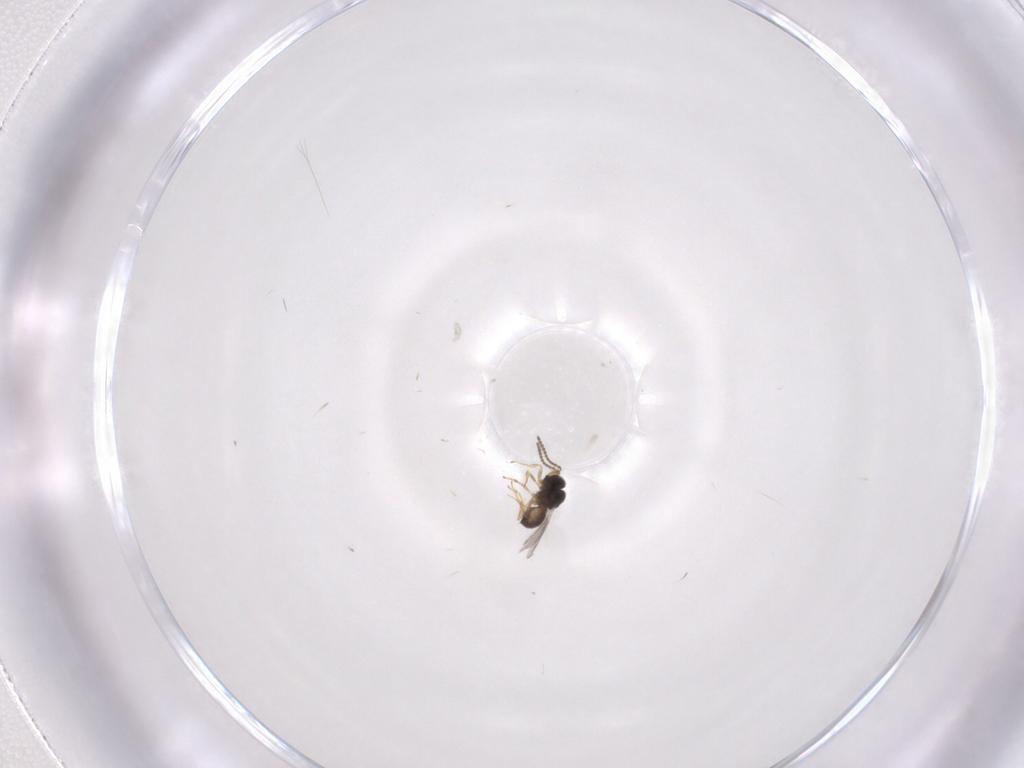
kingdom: Animalia
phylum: Arthropoda
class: Insecta
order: Hymenoptera
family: Scelionidae
